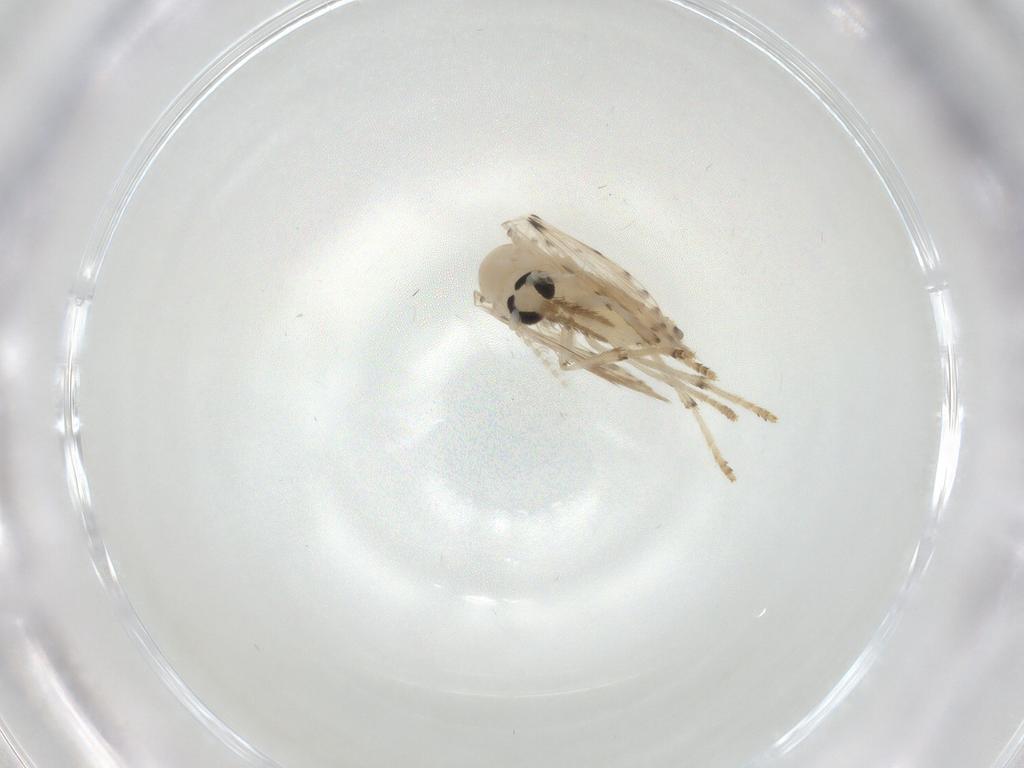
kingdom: Animalia
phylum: Arthropoda
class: Insecta
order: Diptera
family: Psychodidae
